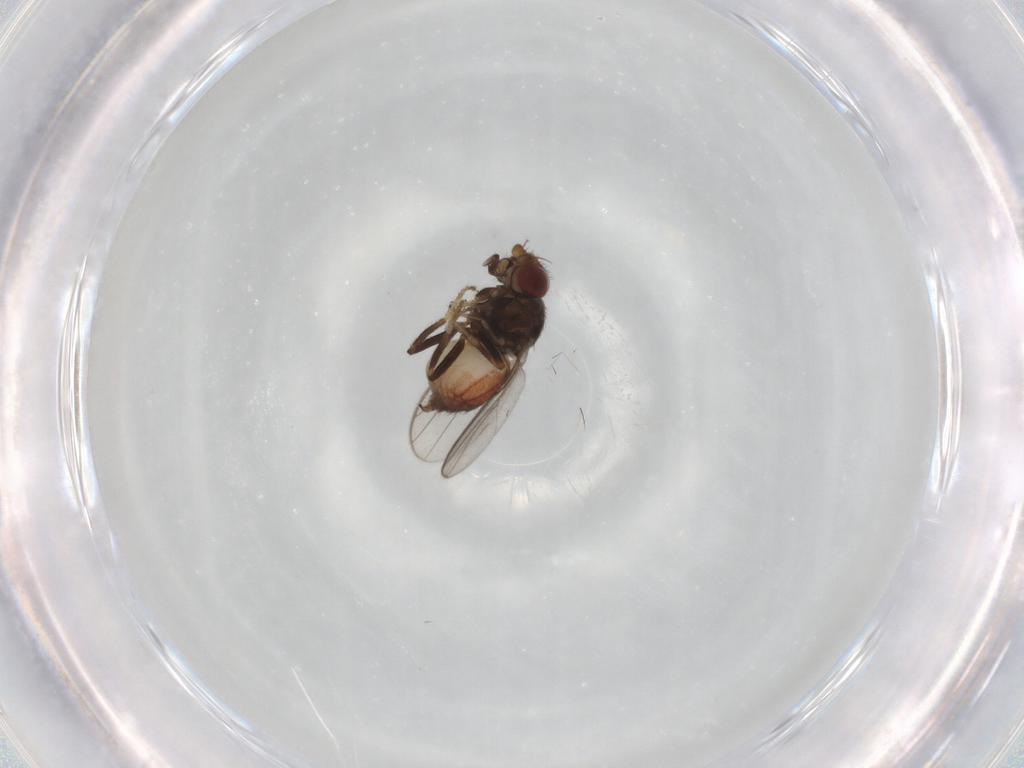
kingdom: Animalia
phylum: Arthropoda
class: Insecta
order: Diptera
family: Chloropidae
